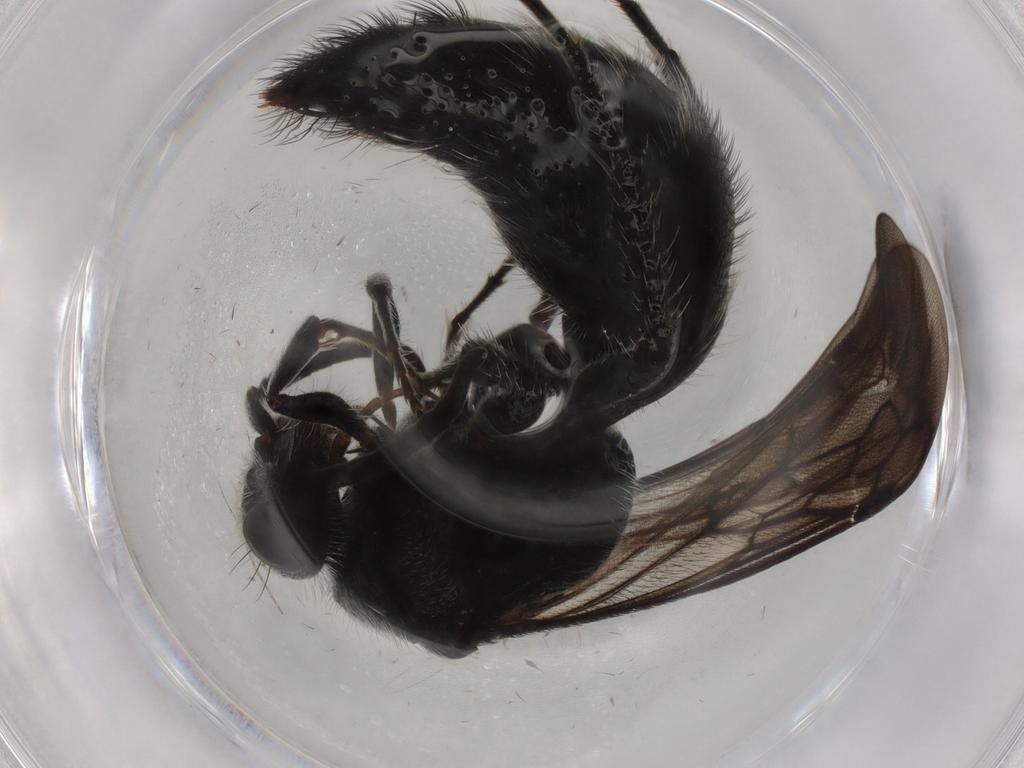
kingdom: Animalia
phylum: Arthropoda
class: Insecta
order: Hymenoptera
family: Mutillidae
